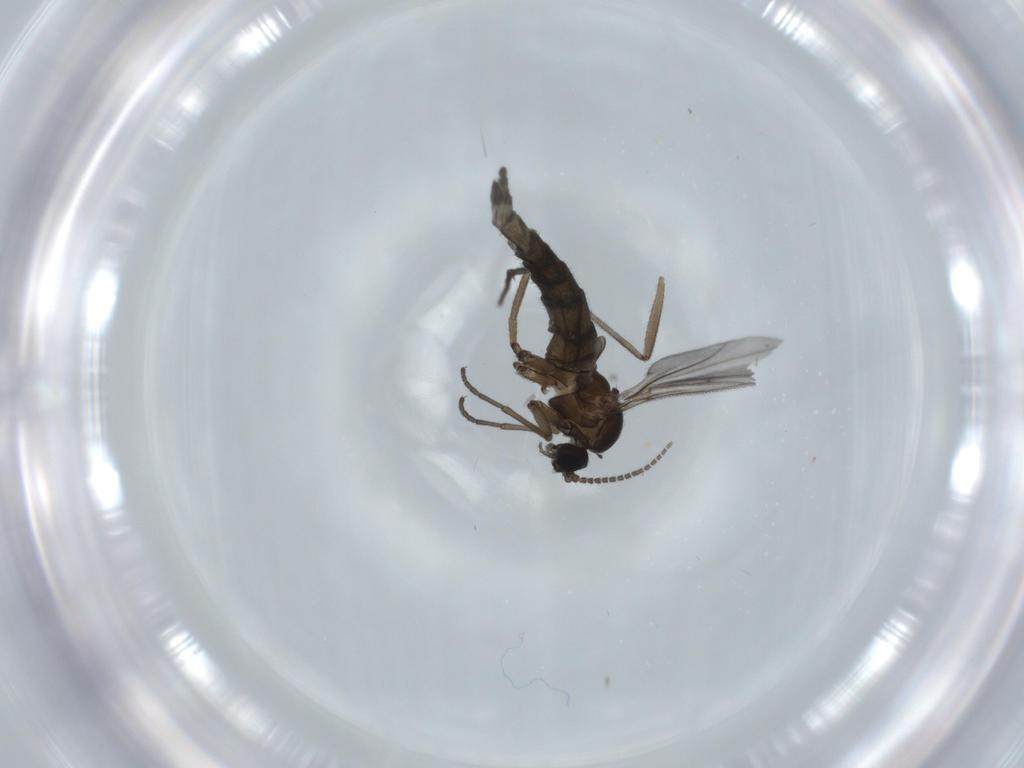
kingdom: Animalia
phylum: Arthropoda
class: Insecta
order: Diptera
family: Sciaridae
